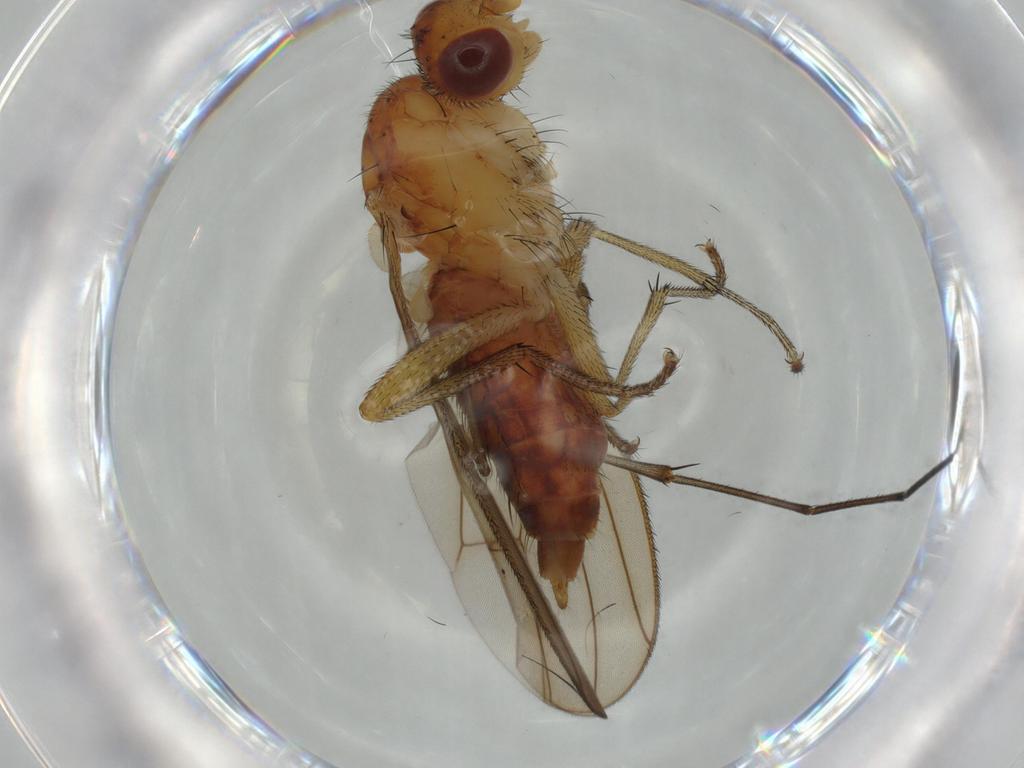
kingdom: Animalia
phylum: Arthropoda
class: Insecta
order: Diptera
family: Heleomyzidae
